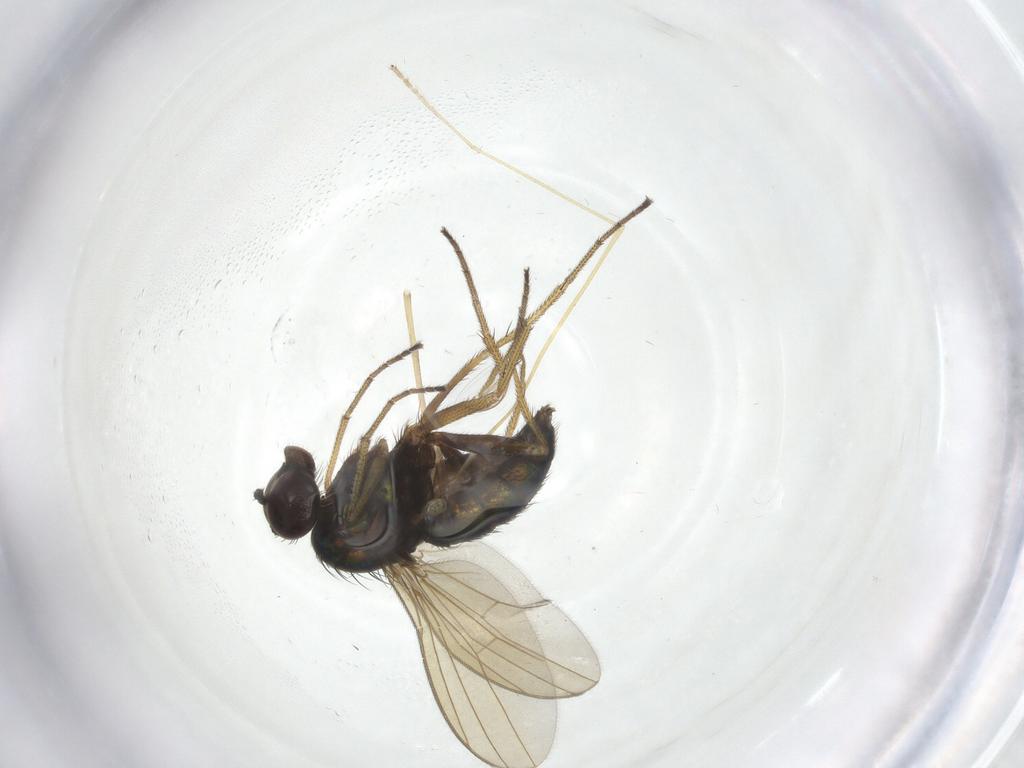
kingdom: Animalia
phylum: Arthropoda
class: Insecta
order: Diptera
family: Dolichopodidae
